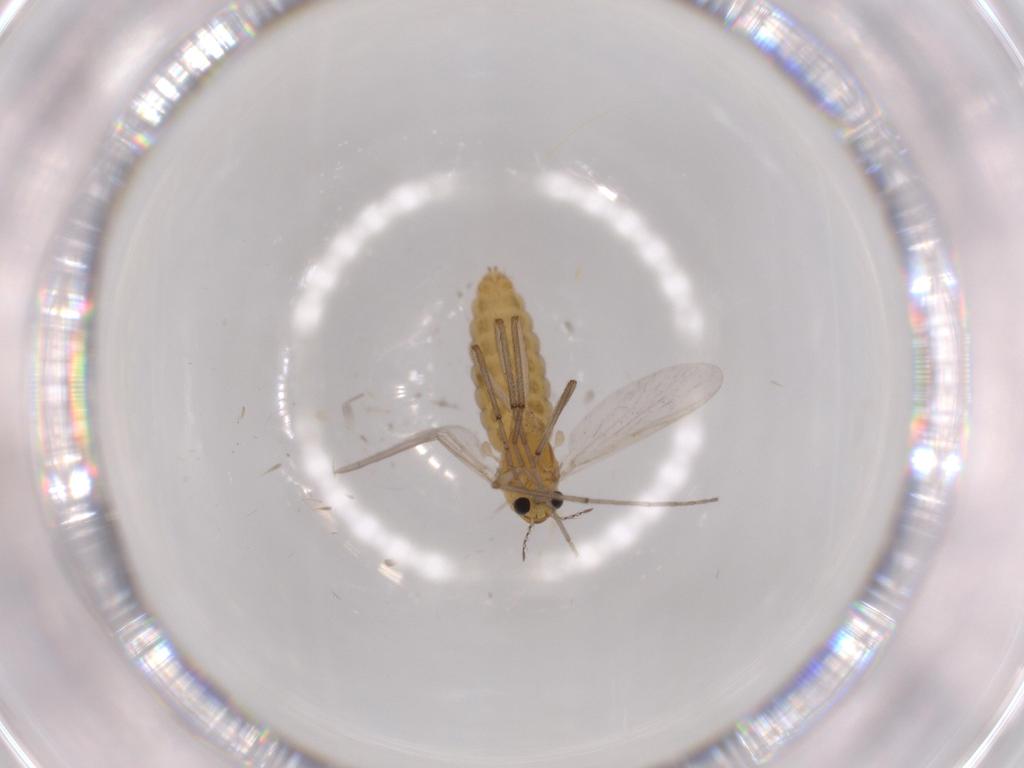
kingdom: Animalia
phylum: Arthropoda
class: Insecta
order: Diptera
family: Chironomidae
